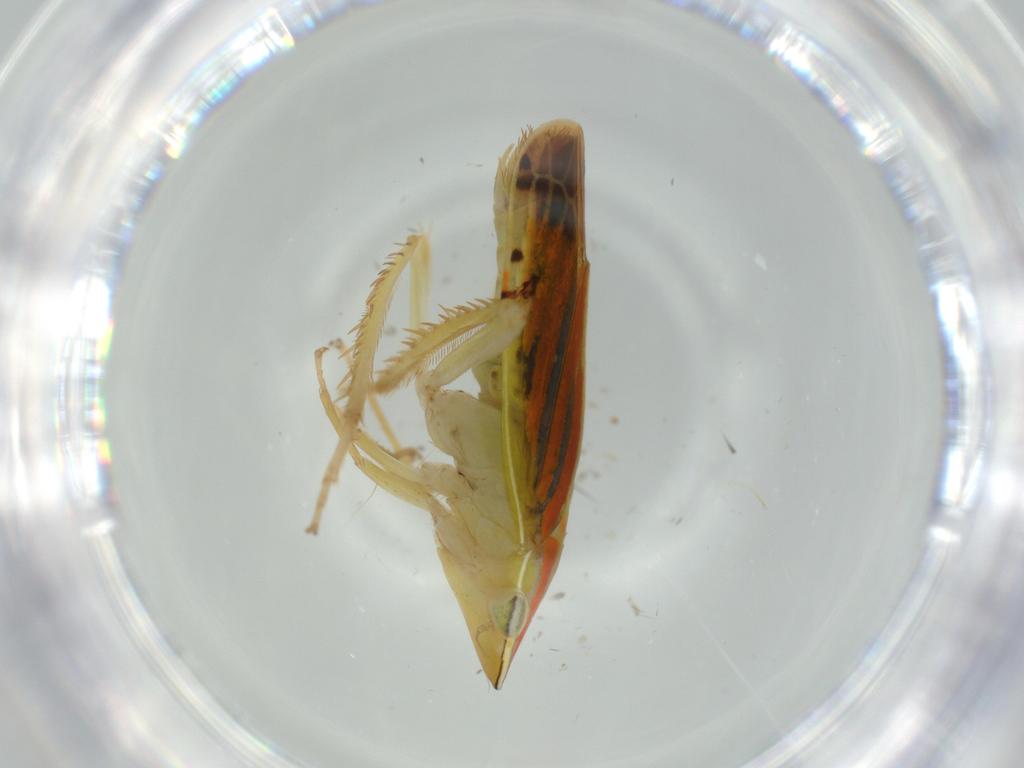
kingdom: Animalia
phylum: Arthropoda
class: Insecta
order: Hemiptera
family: Cicadellidae
